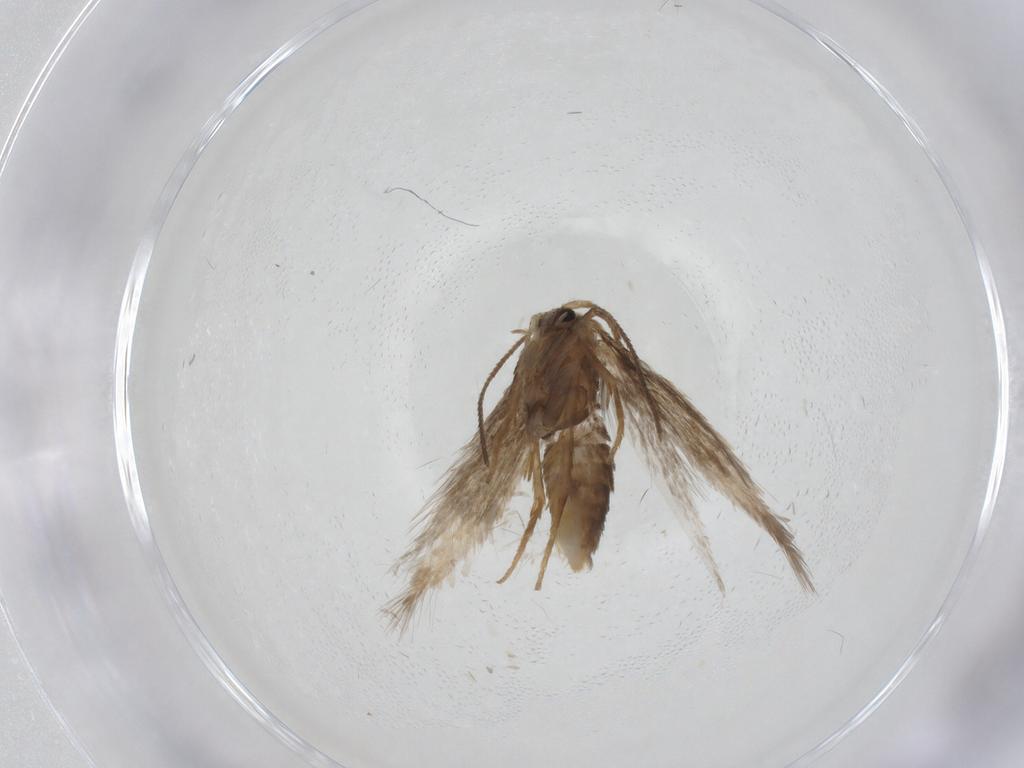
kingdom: Animalia
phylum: Arthropoda
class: Insecta
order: Lepidoptera
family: Nepticulidae
